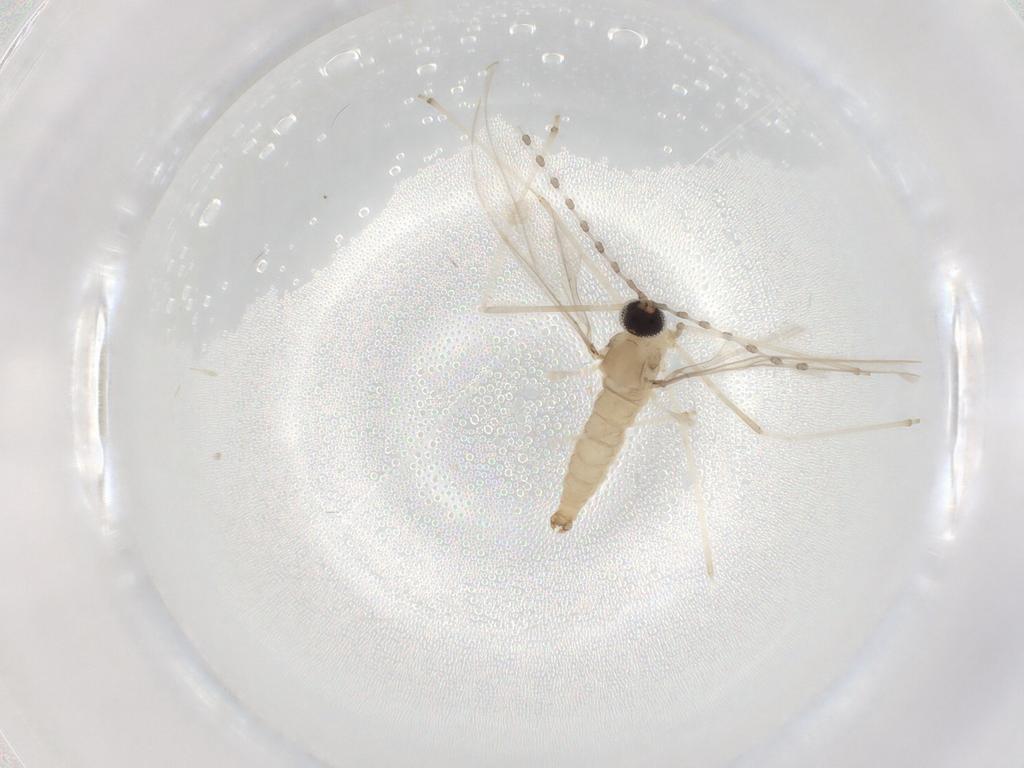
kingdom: Animalia
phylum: Arthropoda
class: Insecta
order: Diptera
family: Cecidomyiidae
